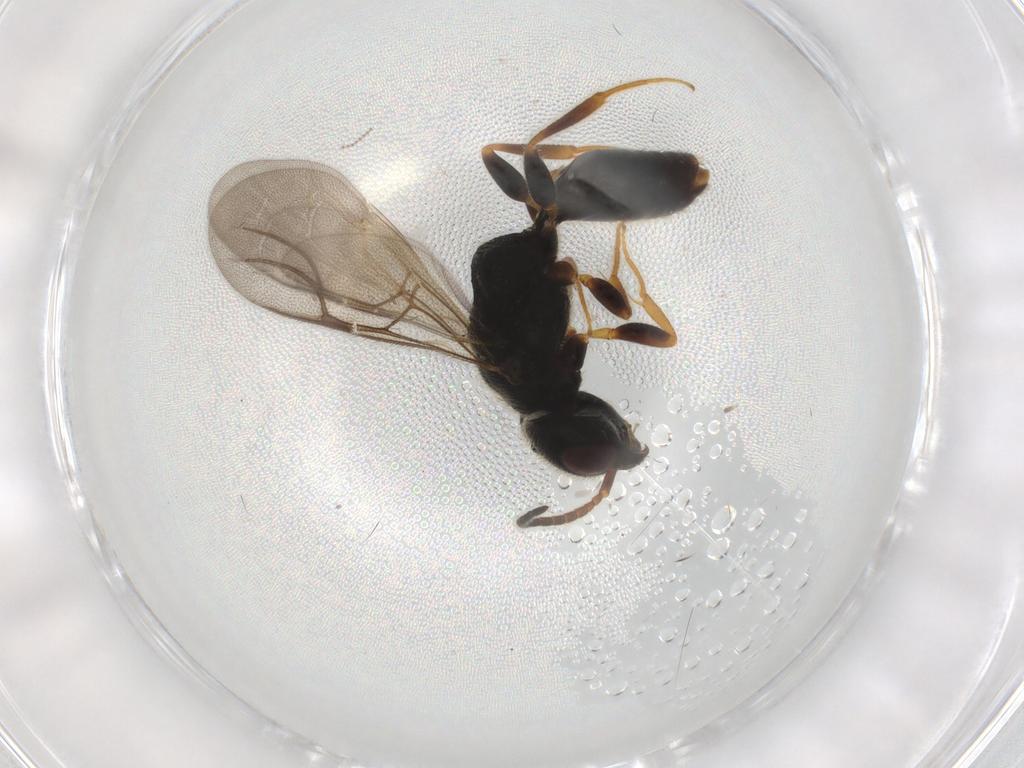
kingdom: Animalia
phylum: Arthropoda
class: Insecta
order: Hymenoptera
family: Bethylidae
